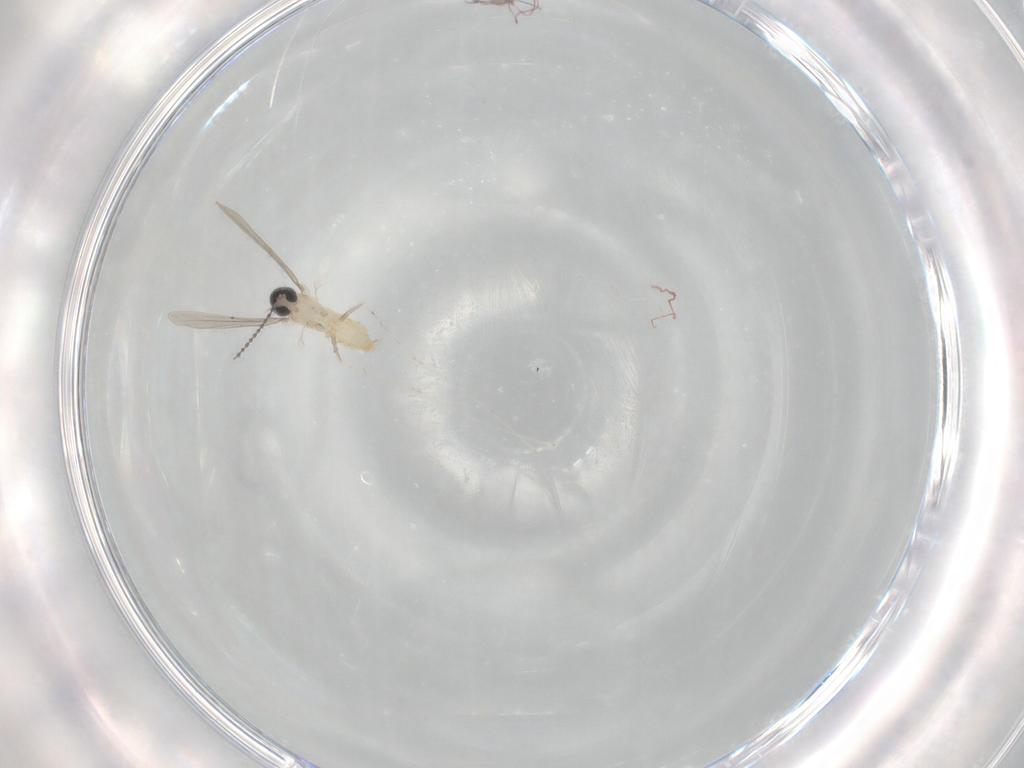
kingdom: Animalia
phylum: Arthropoda
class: Insecta
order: Diptera
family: Cecidomyiidae
